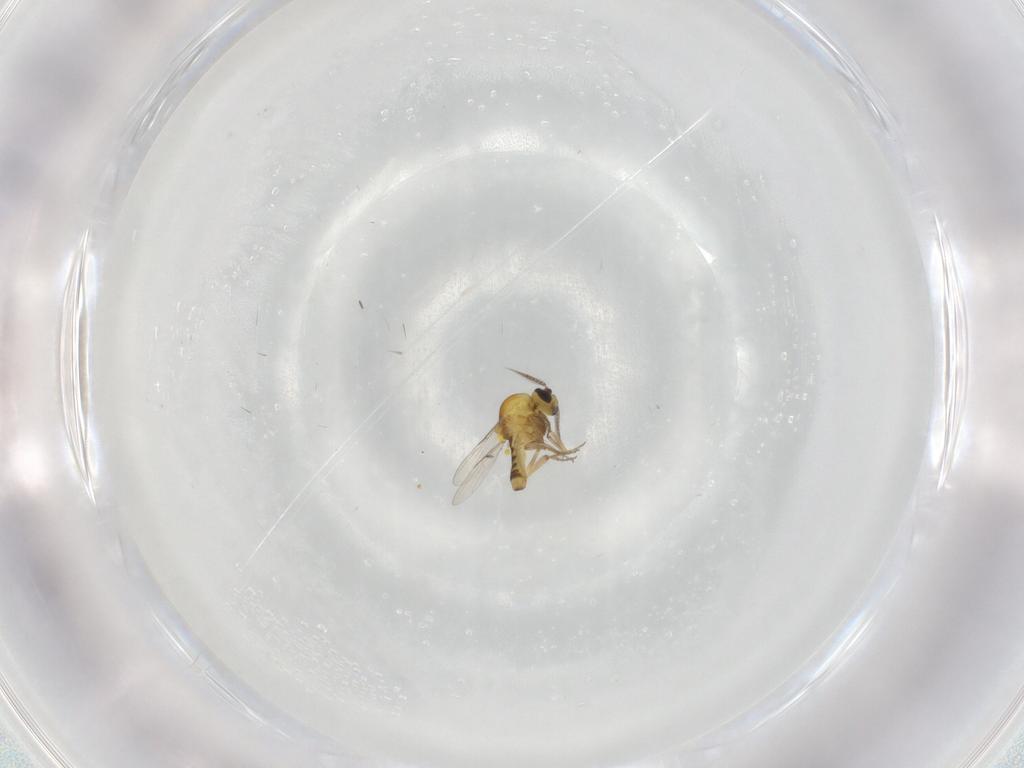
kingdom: Animalia
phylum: Arthropoda
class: Insecta
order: Diptera
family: Ceratopogonidae
